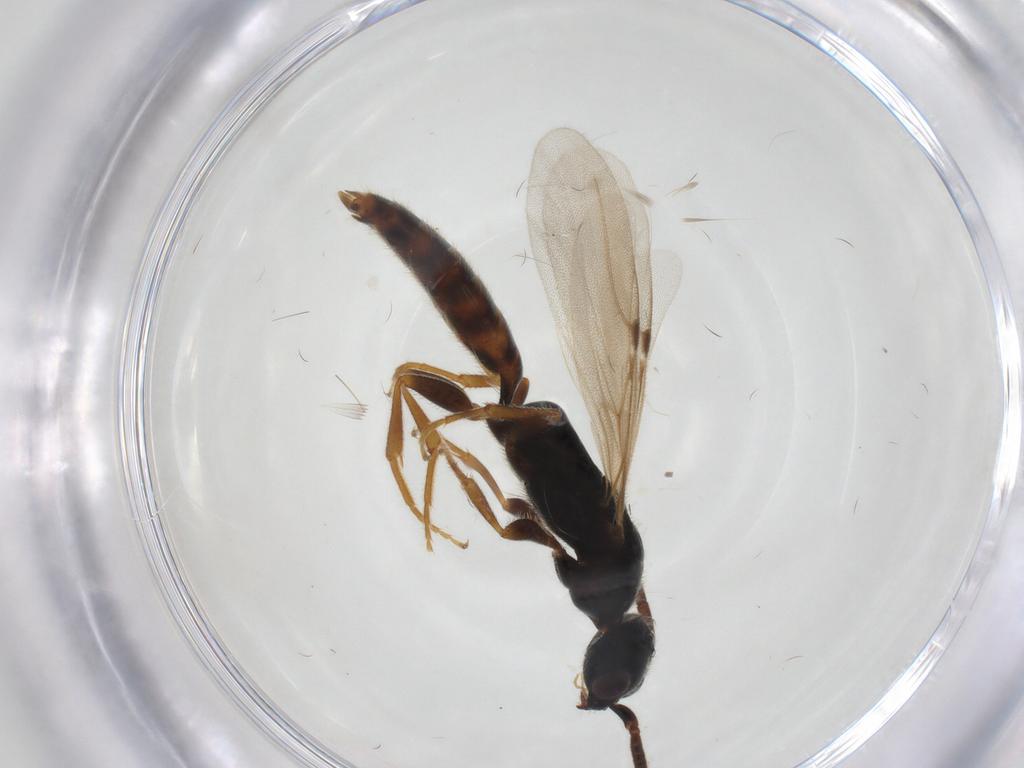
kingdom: Animalia
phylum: Arthropoda
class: Insecta
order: Hymenoptera
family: Bethylidae
